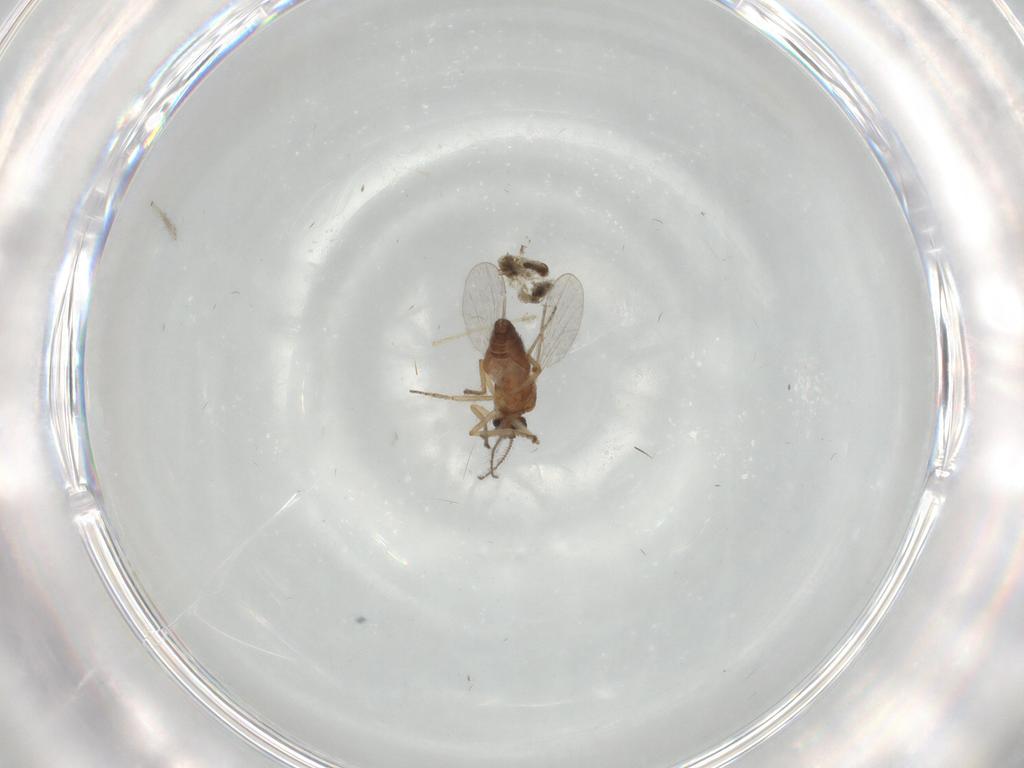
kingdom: Animalia
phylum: Arthropoda
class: Insecta
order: Diptera
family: Ceratopogonidae
